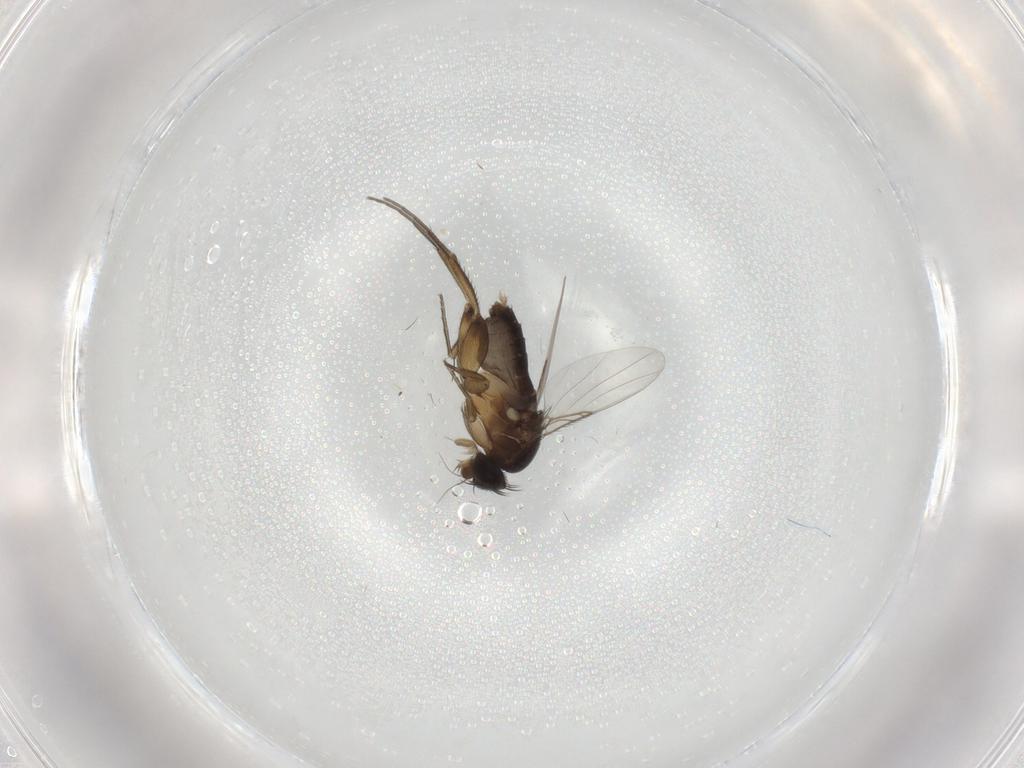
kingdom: Animalia
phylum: Arthropoda
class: Insecta
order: Diptera
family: Phoridae
